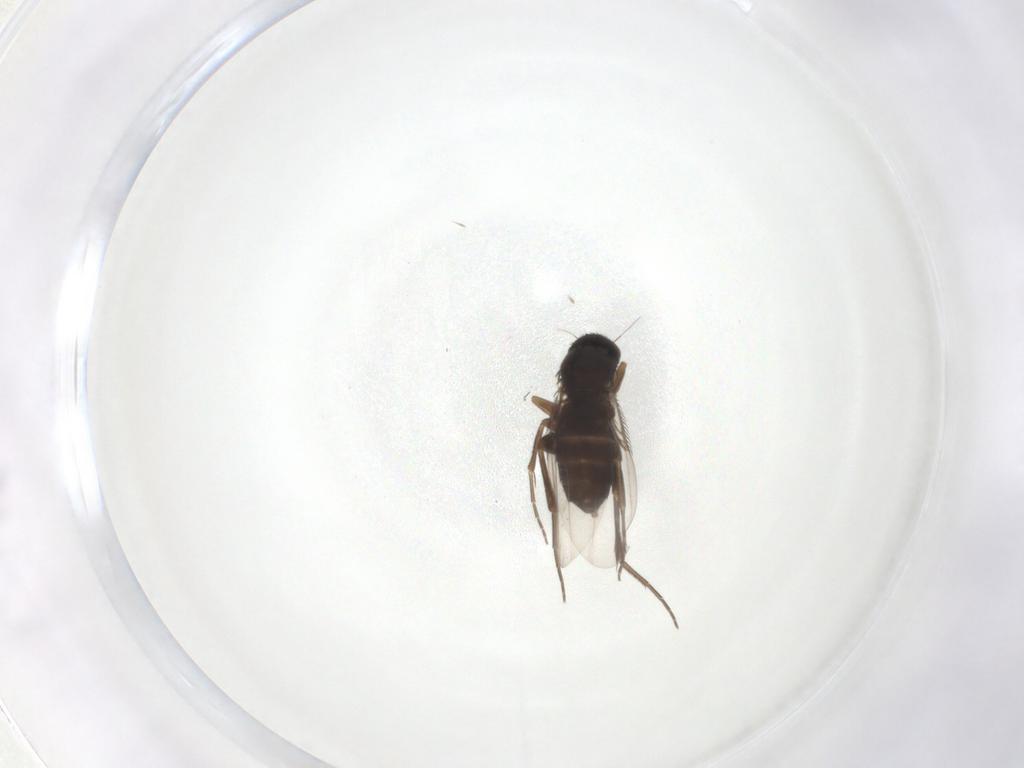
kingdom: Animalia
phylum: Arthropoda
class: Insecta
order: Diptera
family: Phoridae
